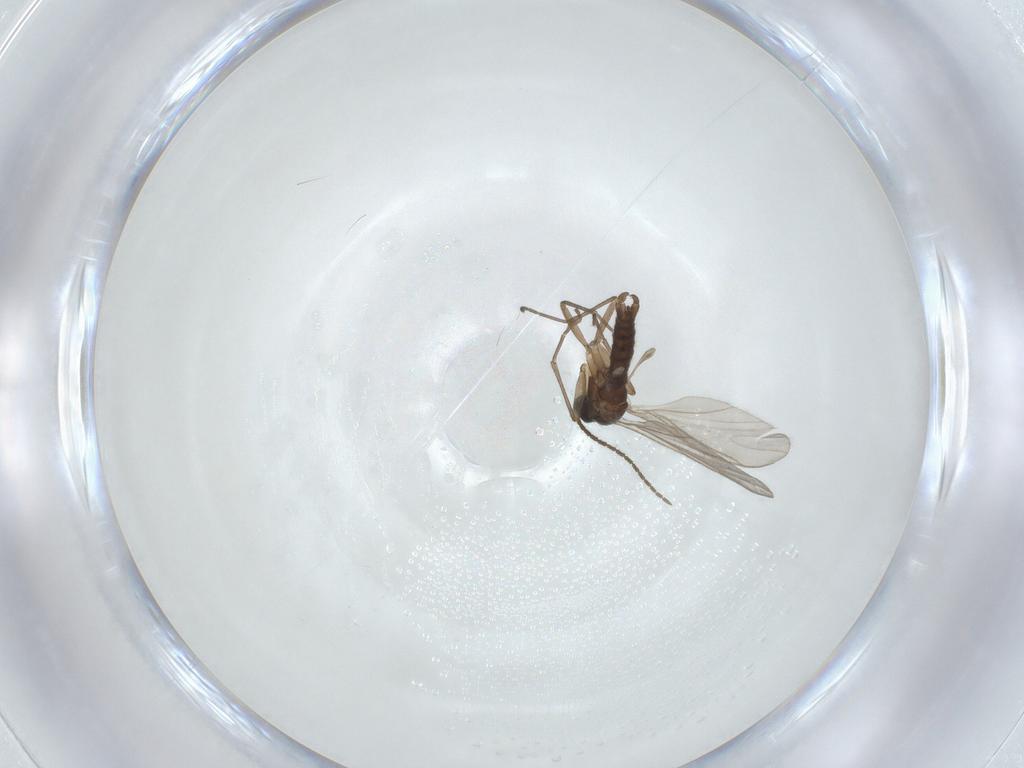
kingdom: Animalia
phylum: Arthropoda
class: Insecta
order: Diptera
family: Sciaridae
